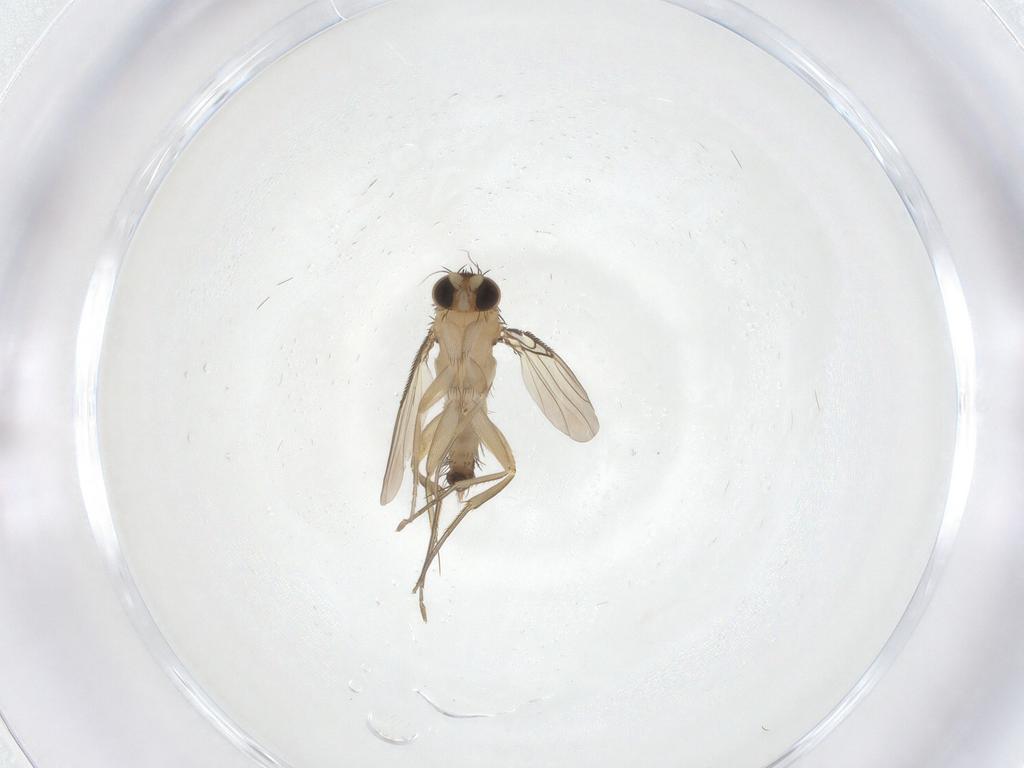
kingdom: Animalia
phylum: Arthropoda
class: Insecta
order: Diptera
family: Phoridae
